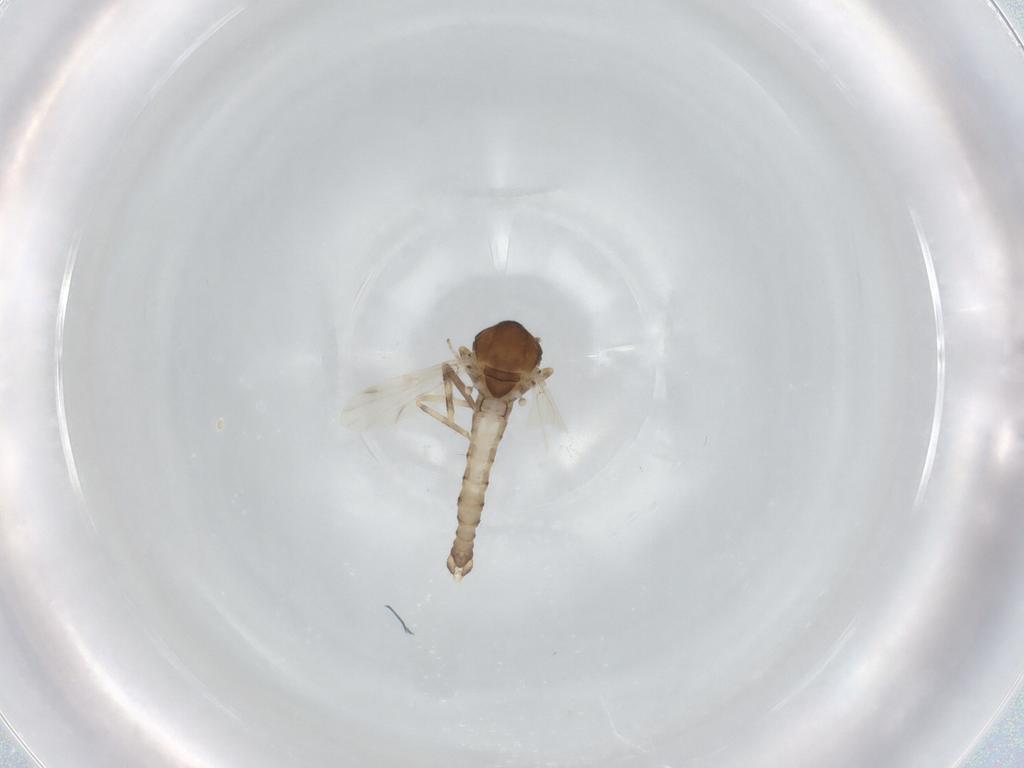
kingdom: Animalia
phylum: Arthropoda
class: Insecta
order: Diptera
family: Ceratopogonidae
